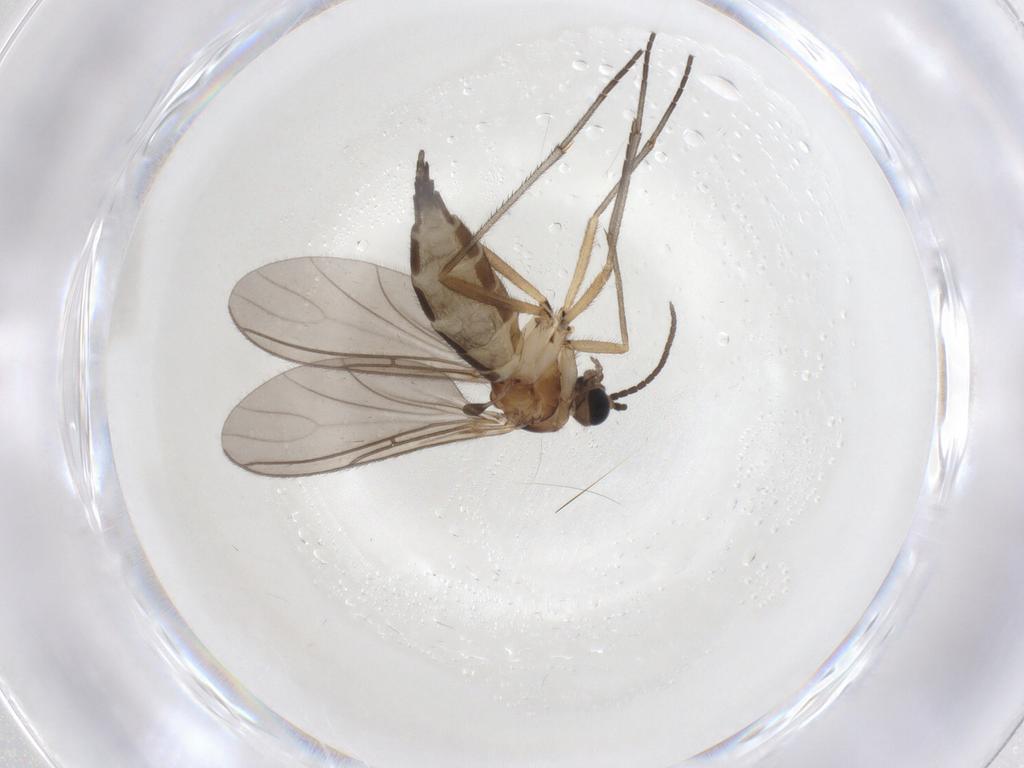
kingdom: Animalia
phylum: Arthropoda
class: Insecta
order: Diptera
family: Sciaridae
